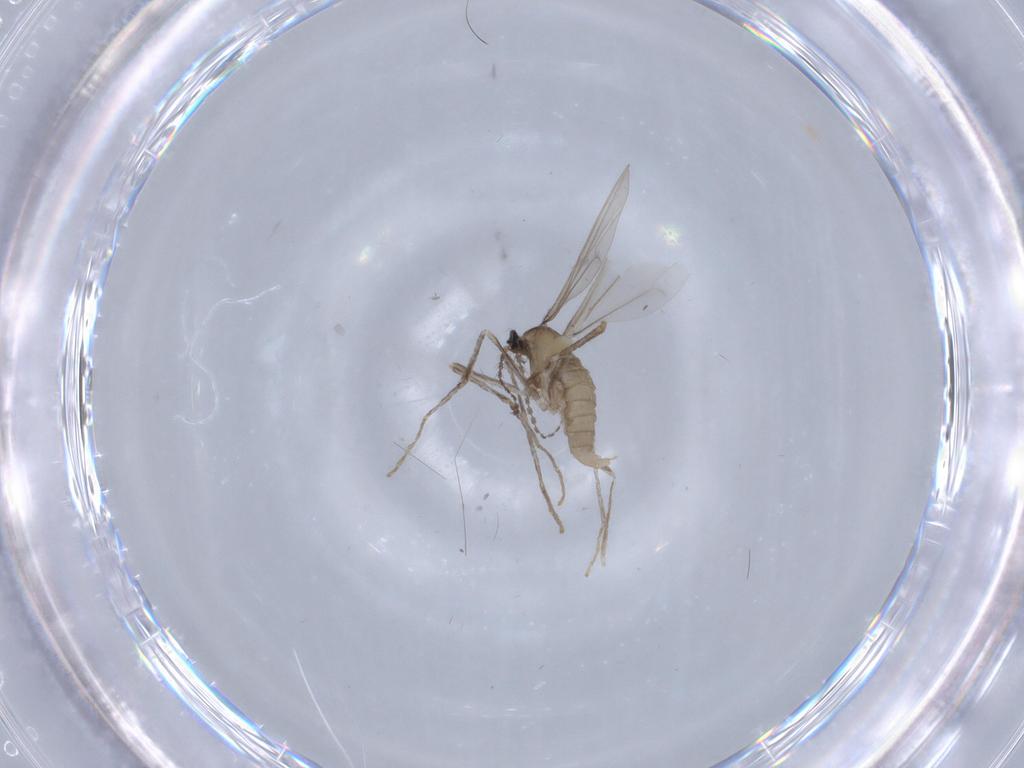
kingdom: Animalia
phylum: Arthropoda
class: Insecta
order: Diptera
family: Cecidomyiidae
